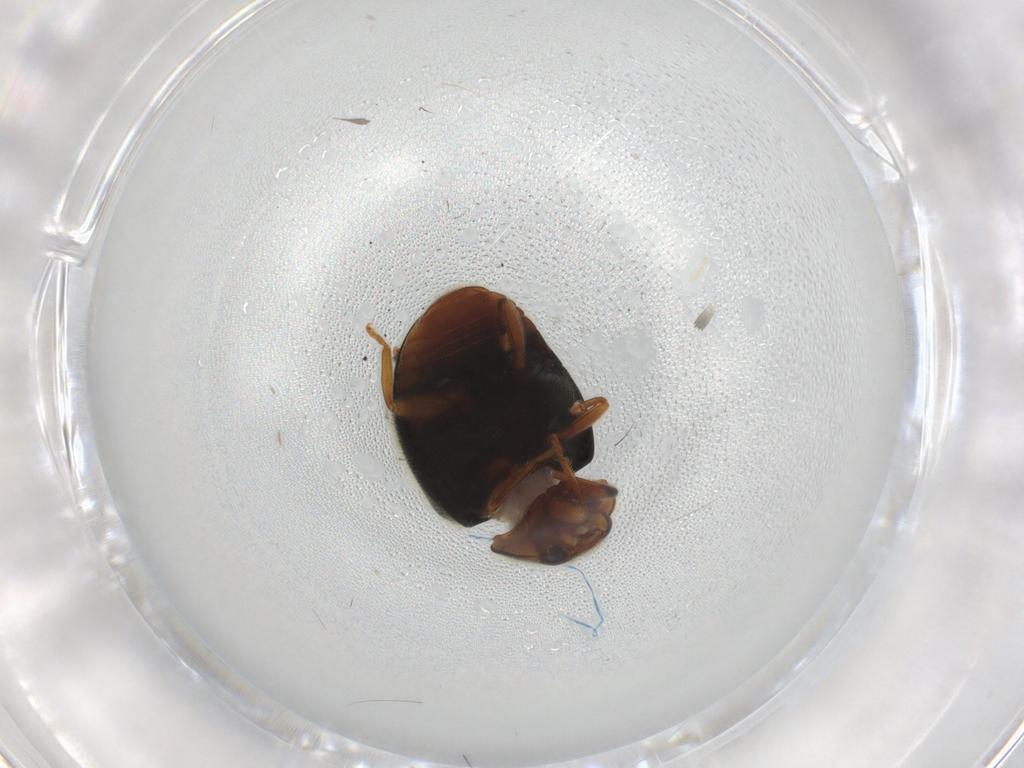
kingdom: Animalia
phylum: Arthropoda
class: Insecta
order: Coleoptera
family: Coccinellidae
